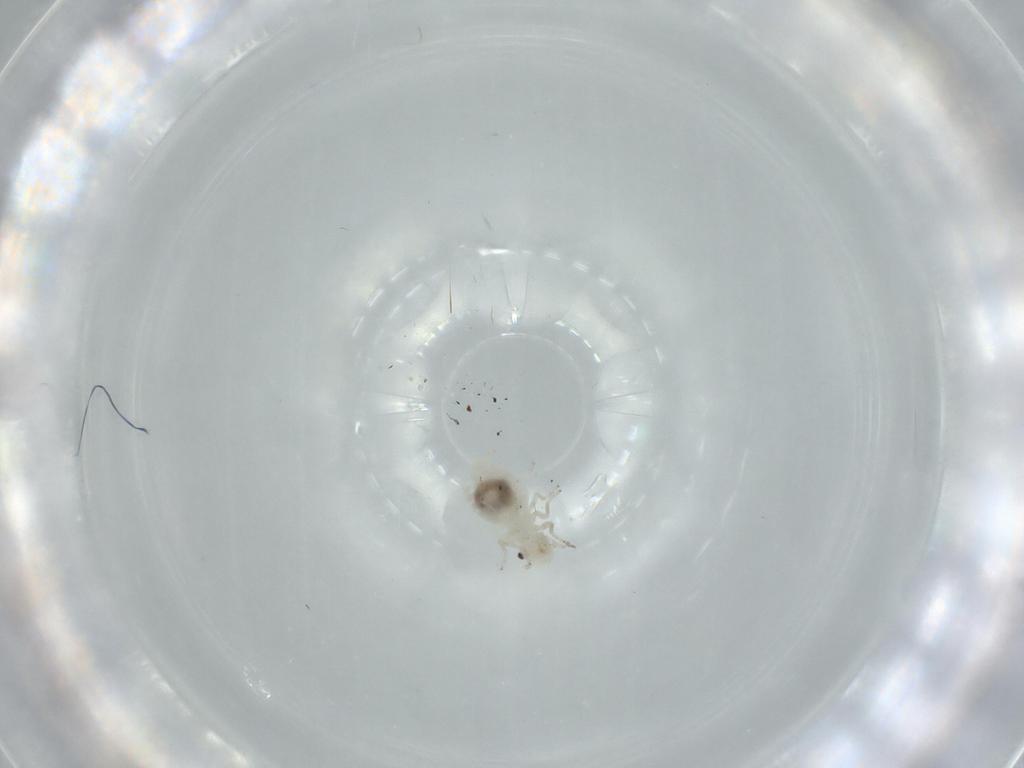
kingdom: Animalia
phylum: Arthropoda
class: Insecta
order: Psocodea
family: Caeciliusidae
